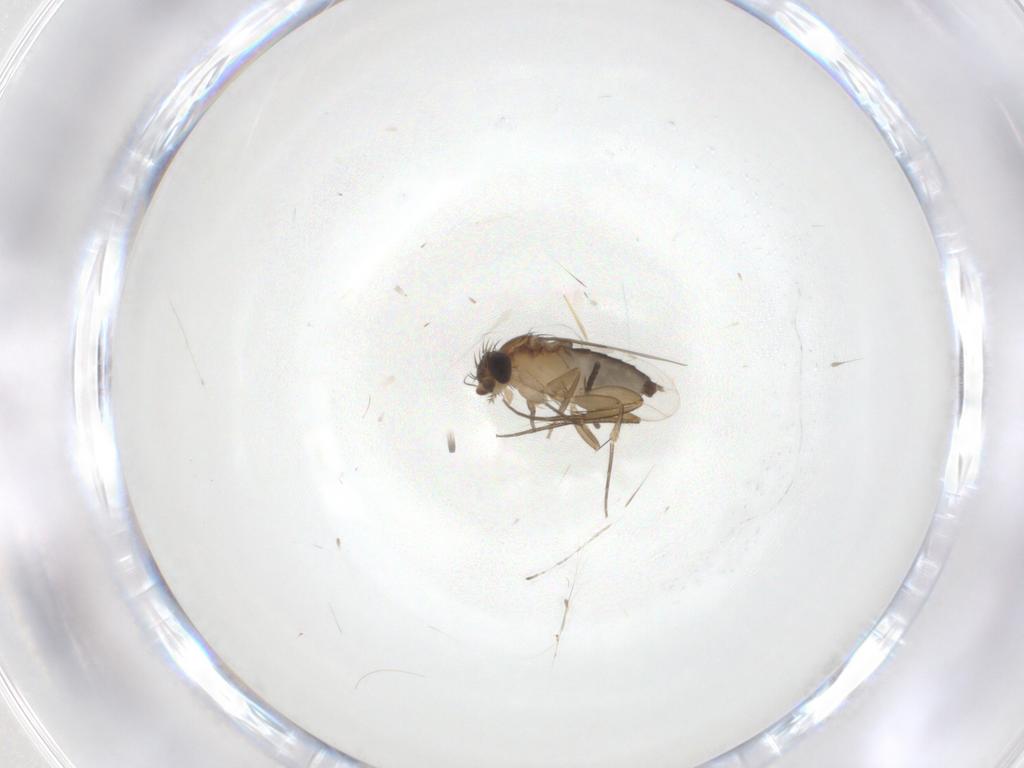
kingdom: Animalia
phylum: Arthropoda
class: Insecta
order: Diptera
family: Phoridae
